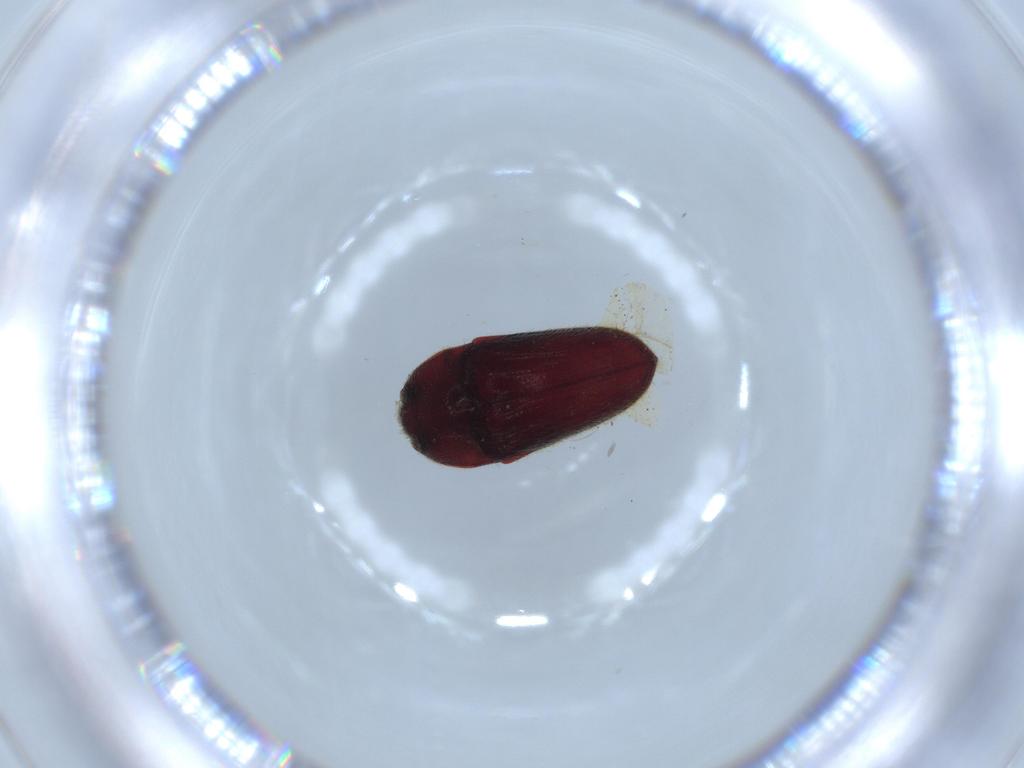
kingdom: Animalia
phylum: Arthropoda
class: Insecta
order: Coleoptera
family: Throscidae
